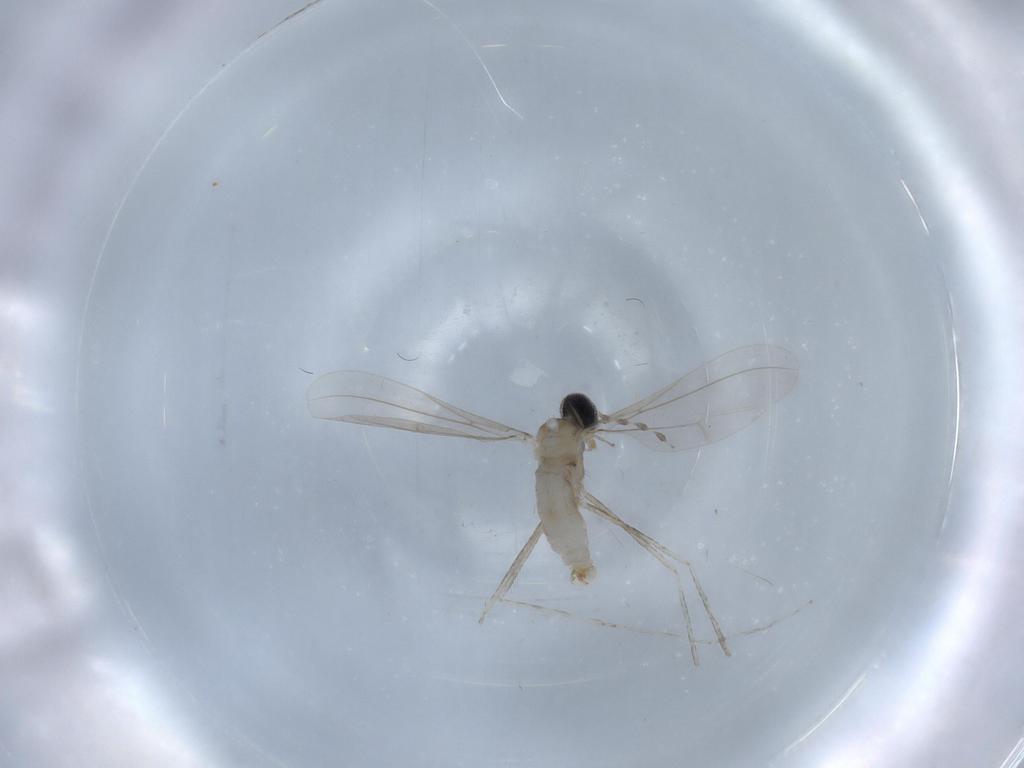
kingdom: Animalia
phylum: Arthropoda
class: Insecta
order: Diptera
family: Cecidomyiidae
